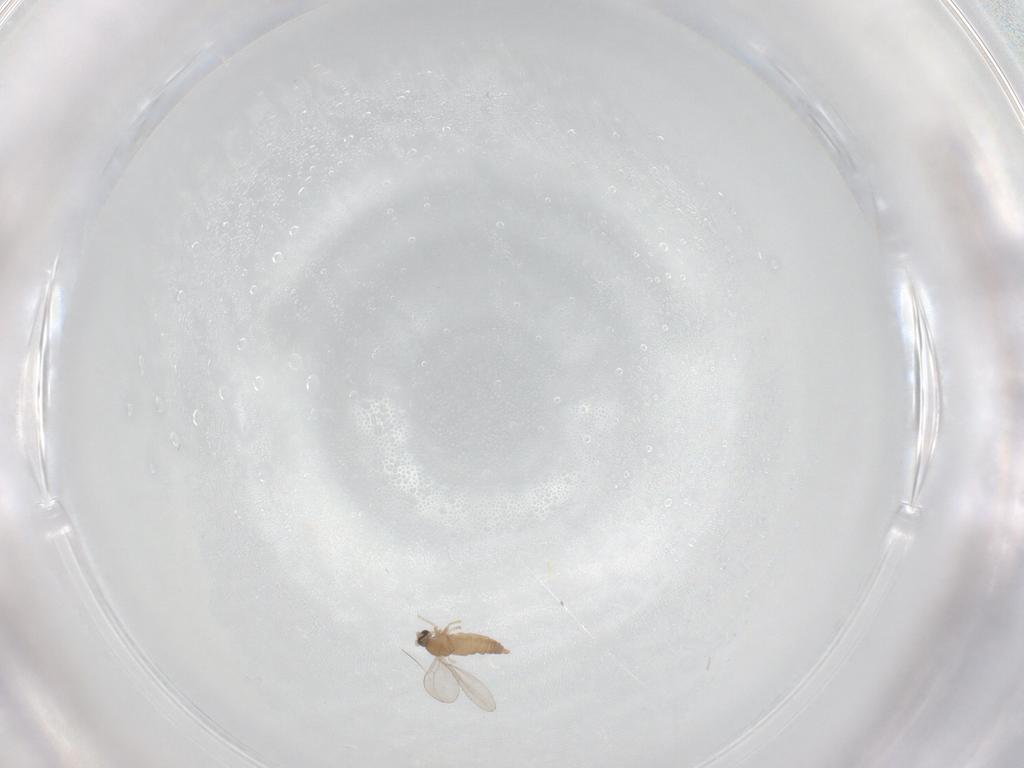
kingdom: Animalia
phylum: Arthropoda
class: Insecta
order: Diptera
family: Cecidomyiidae
